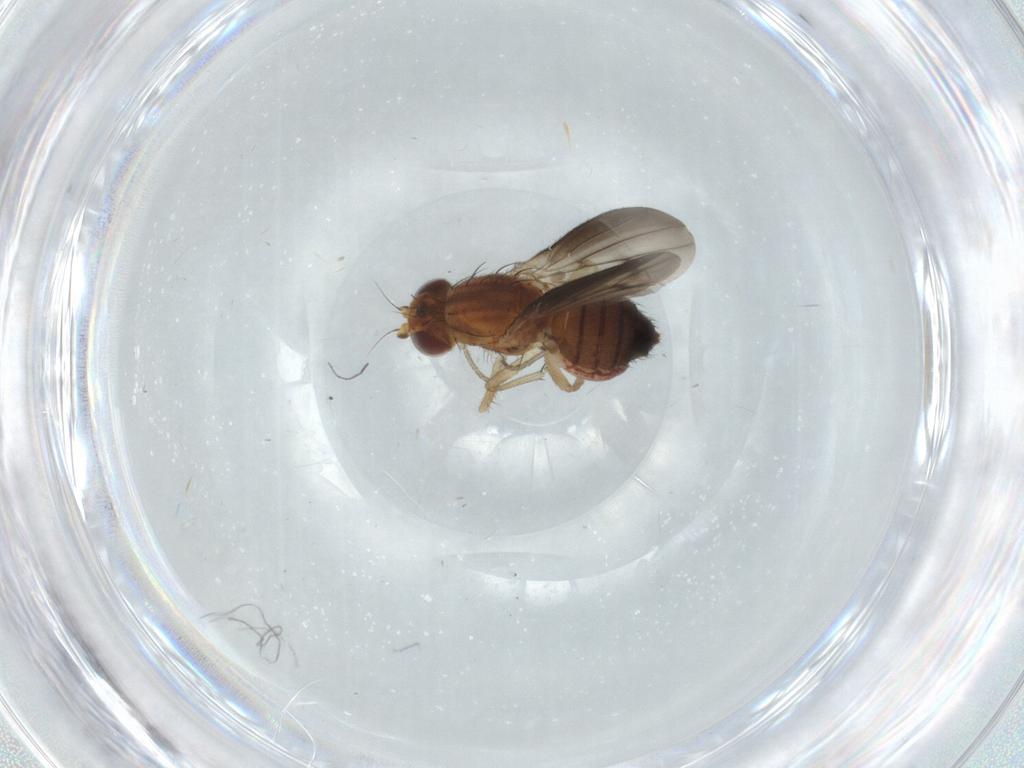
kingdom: Animalia
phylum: Arthropoda
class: Insecta
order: Diptera
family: Heleomyzidae
